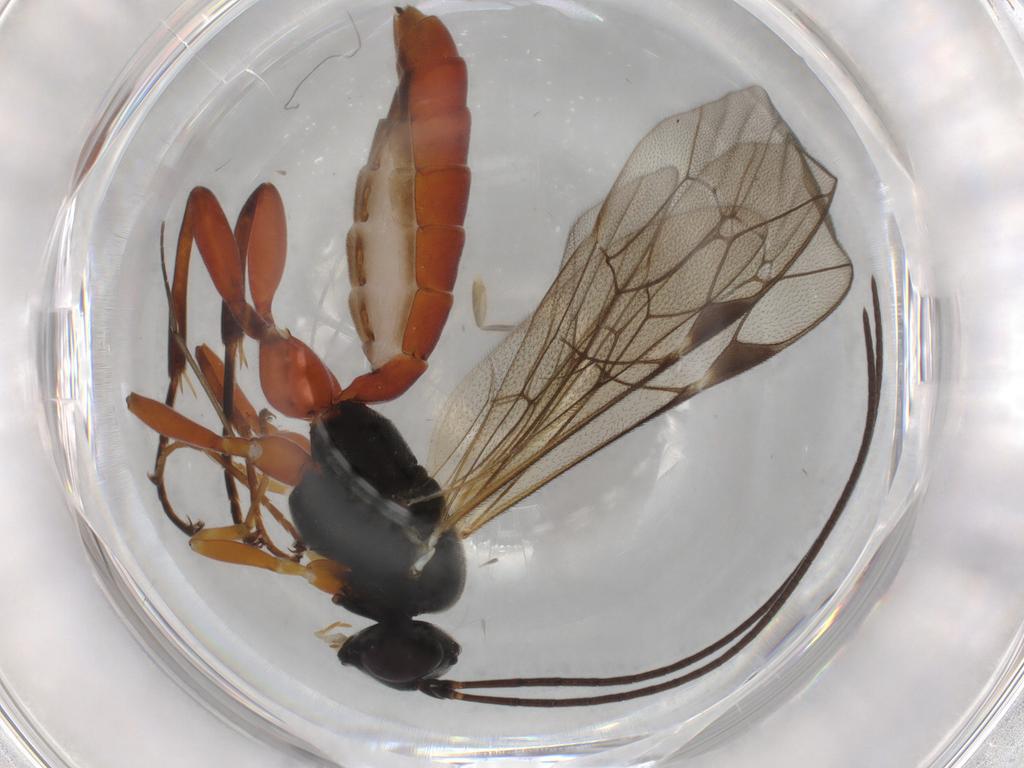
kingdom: Animalia
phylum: Arthropoda
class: Insecta
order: Hymenoptera
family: Ichneumonidae
